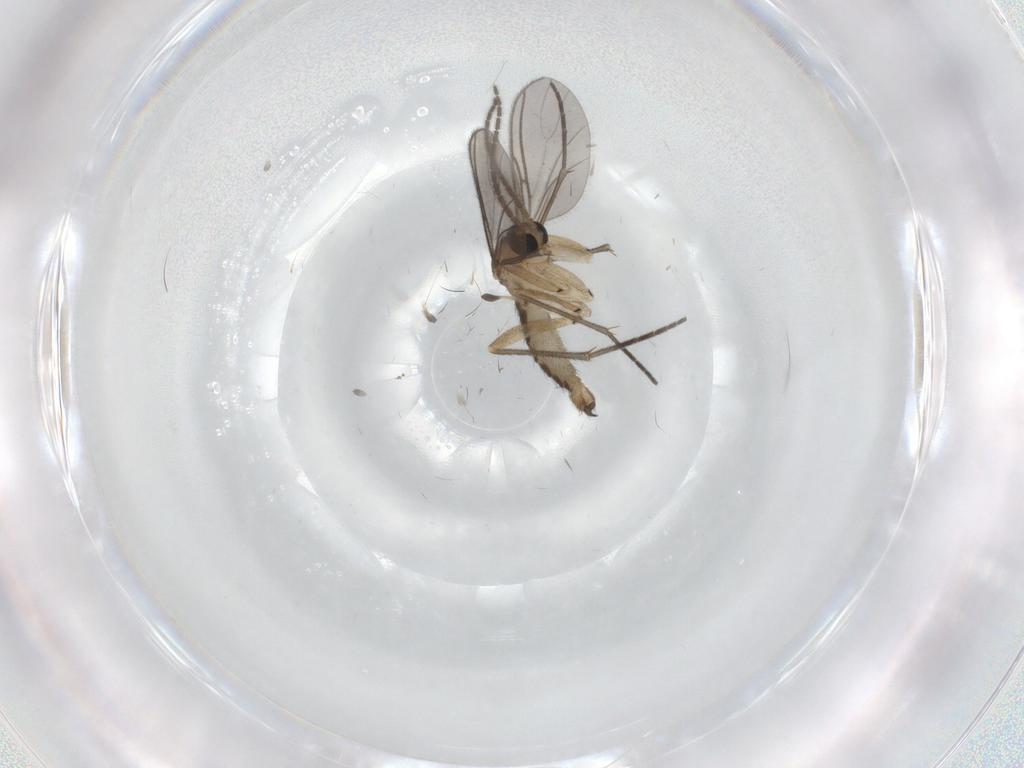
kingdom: Animalia
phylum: Arthropoda
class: Insecta
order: Diptera
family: Sciaridae
